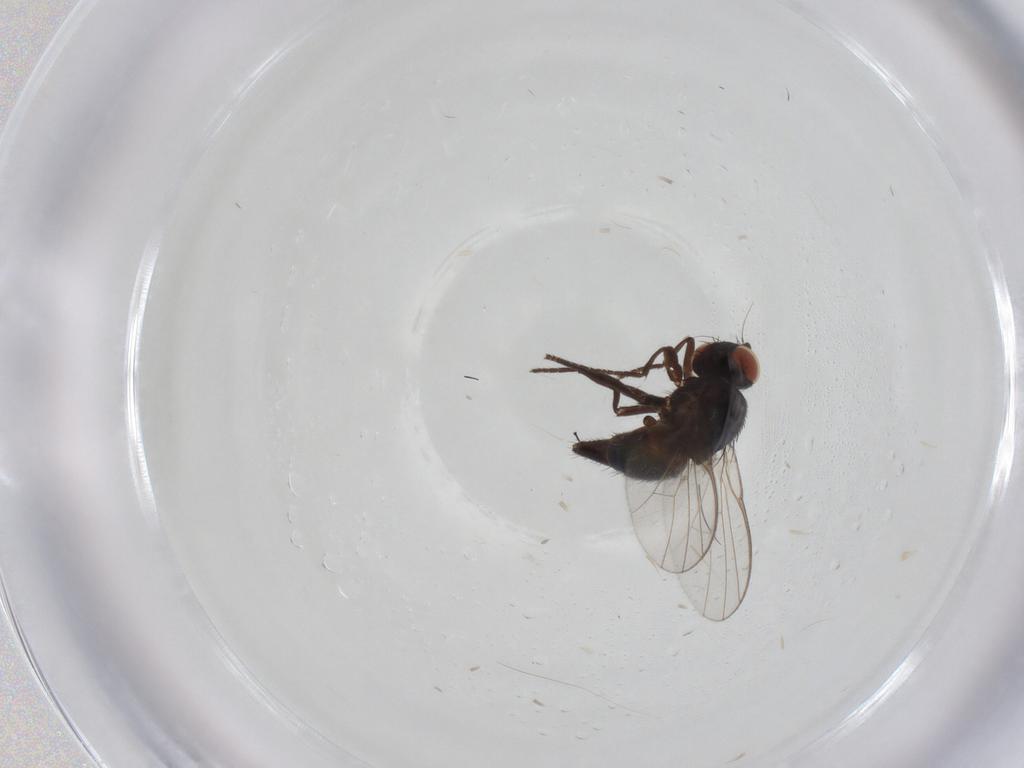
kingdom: Animalia
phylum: Arthropoda
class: Insecta
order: Diptera
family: Agromyzidae
